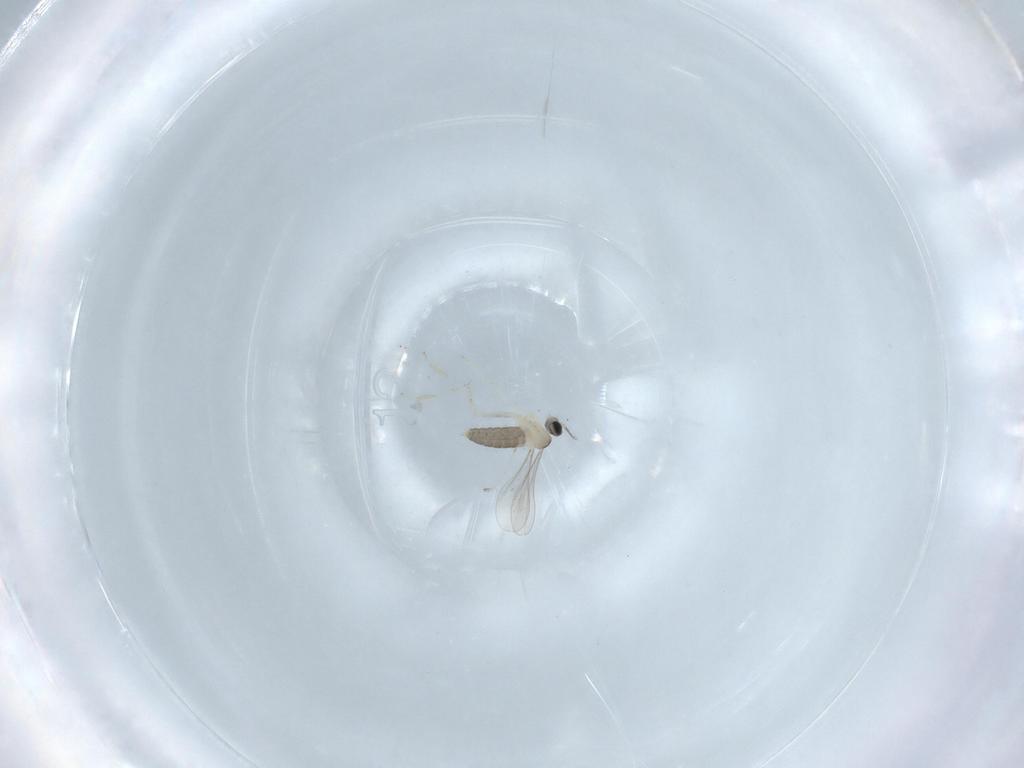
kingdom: Animalia
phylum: Arthropoda
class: Insecta
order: Diptera
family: Cecidomyiidae
